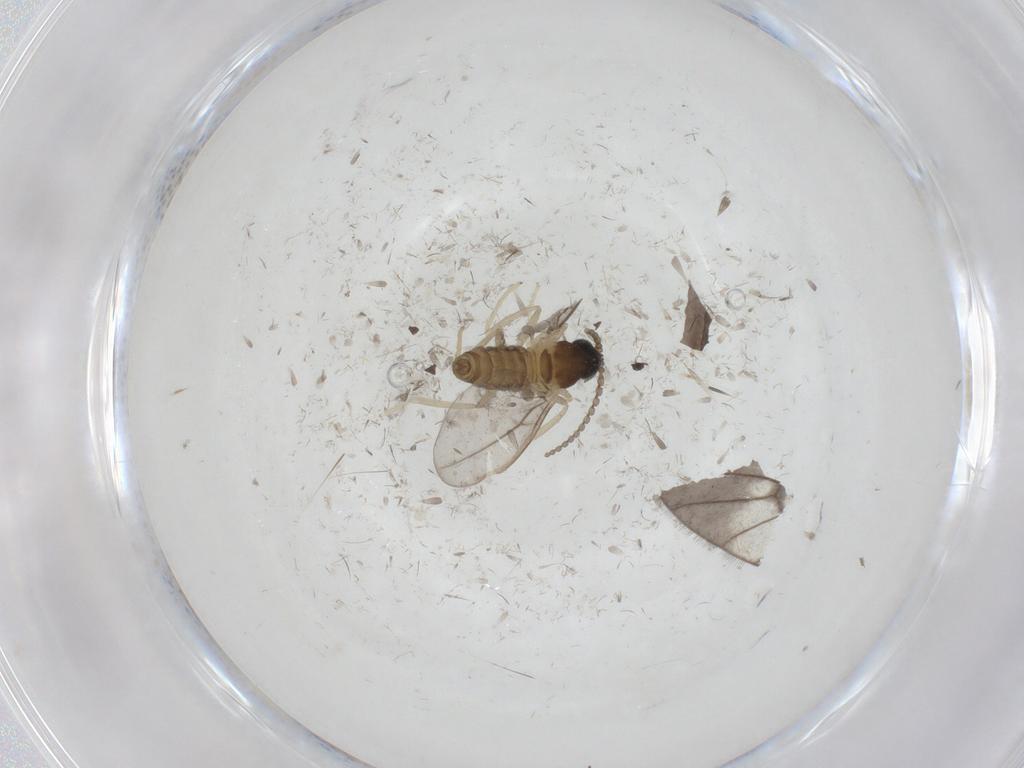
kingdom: Animalia
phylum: Arthropoda
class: Insecta
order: Diptera
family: Limoniidae
